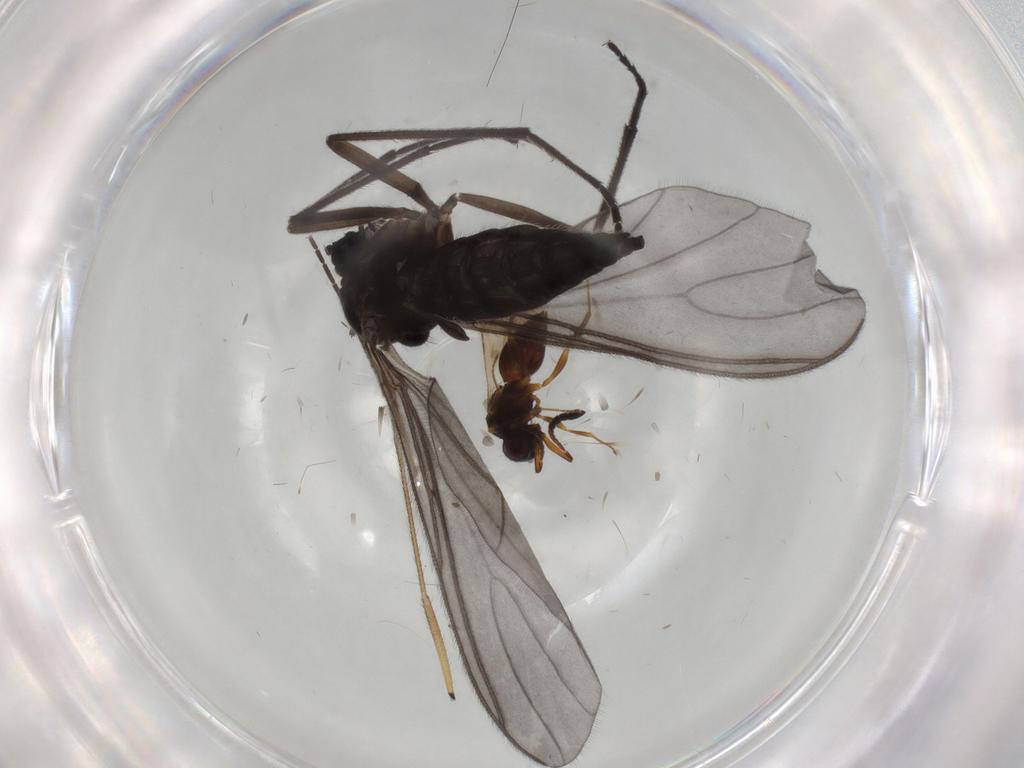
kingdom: Animalia
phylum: Arthropoda
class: Insecta
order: Diptera
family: Sciaridae
